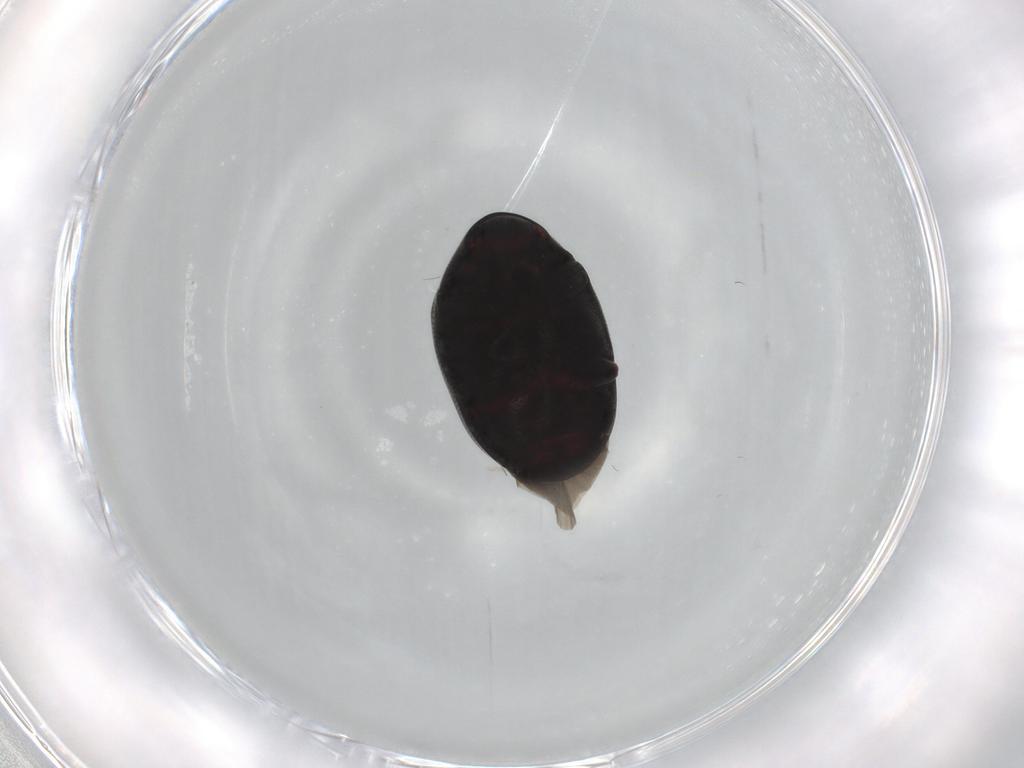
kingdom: Animalia
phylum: Arthropoda
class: Insecta
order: Coleoptera
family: Ptinidae
